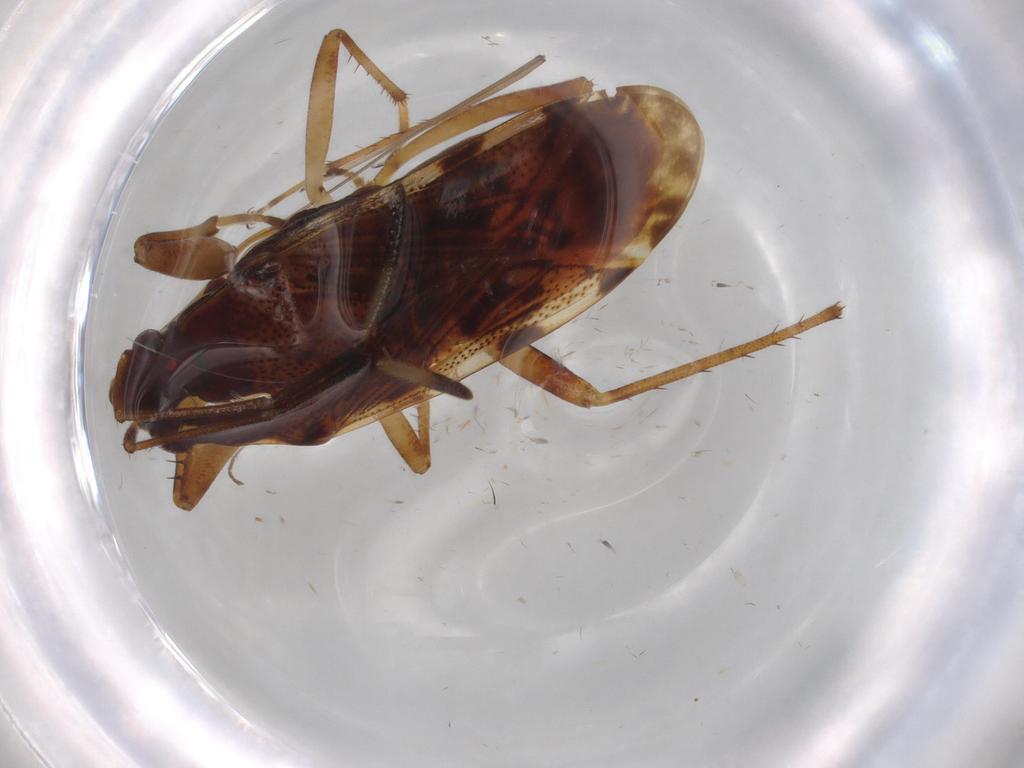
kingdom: Animalia
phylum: Arthropoda
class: Insecta
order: Hemiptera
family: Rhyparochromidae
